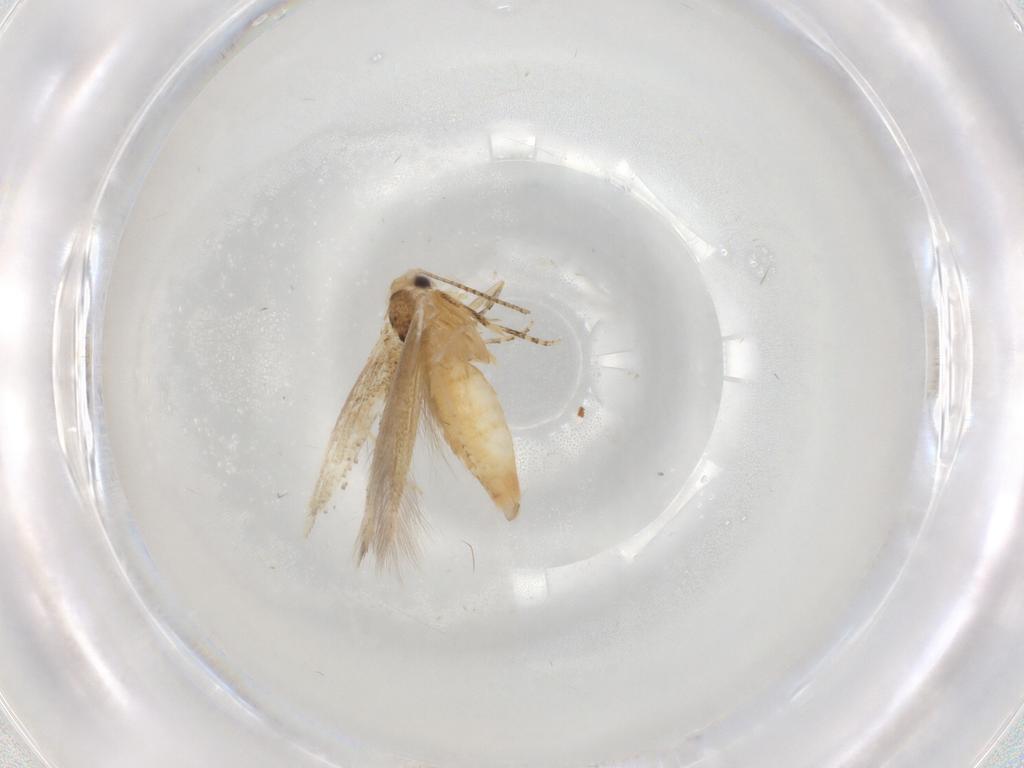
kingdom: Animalia
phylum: Arthropoda
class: Insecta
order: Lepidoptera
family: Bucculatricidae
